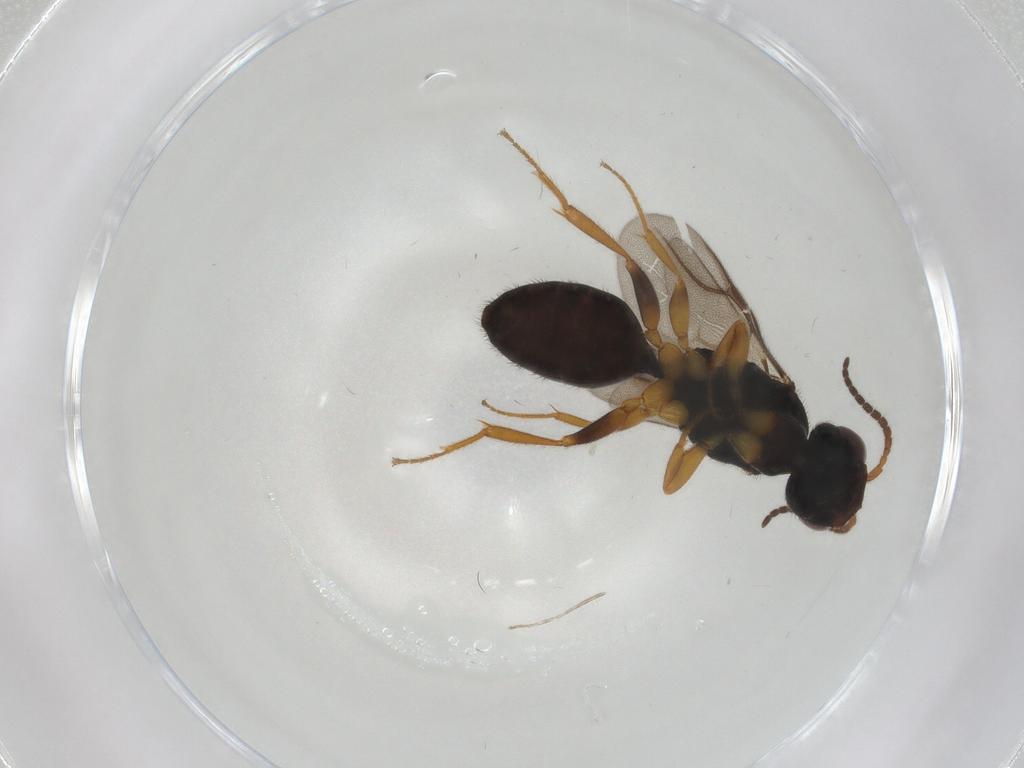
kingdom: Animalia
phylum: Arthropoda
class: Insecta
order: Hymenoptera
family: Bethylidae
